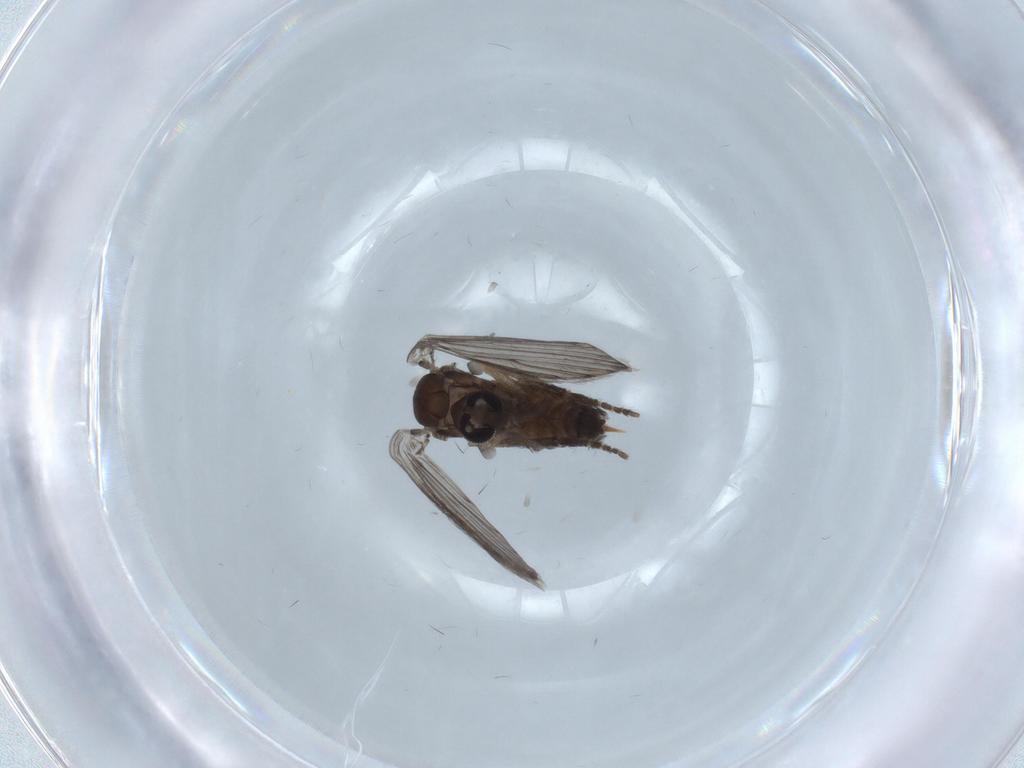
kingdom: Animalia
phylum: Arthropoda
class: Insecta
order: Diptera
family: Psychodidae
